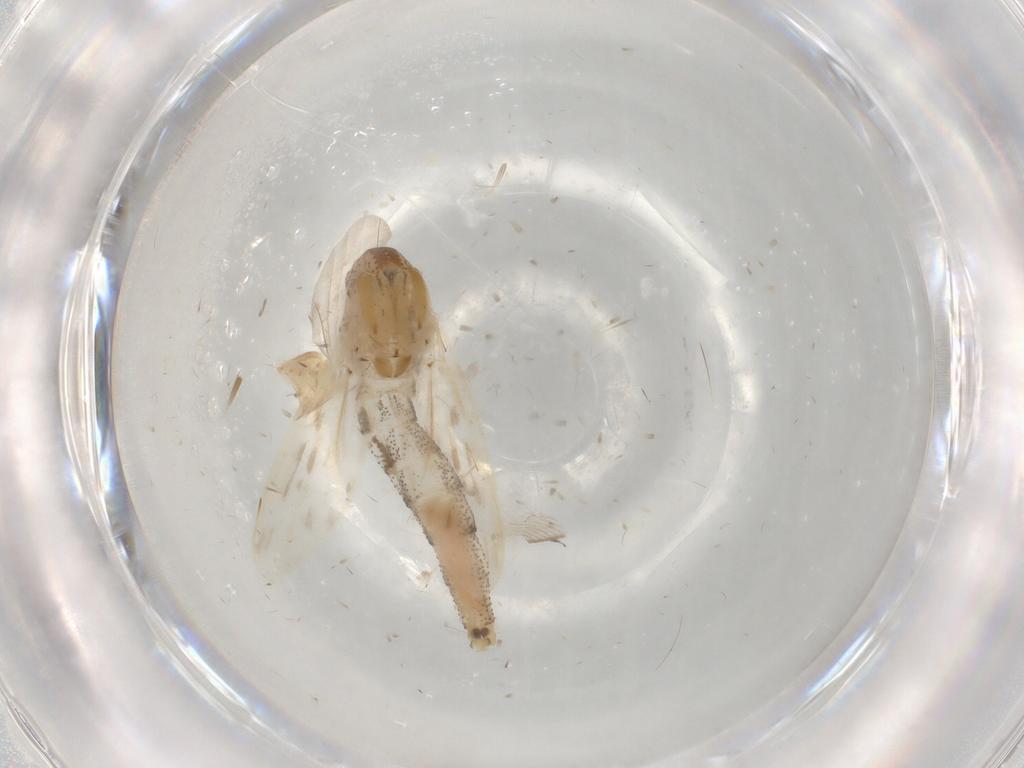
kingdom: Animalia
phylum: Arthropoda
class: Insecta
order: Diptera
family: Chaoboridae
